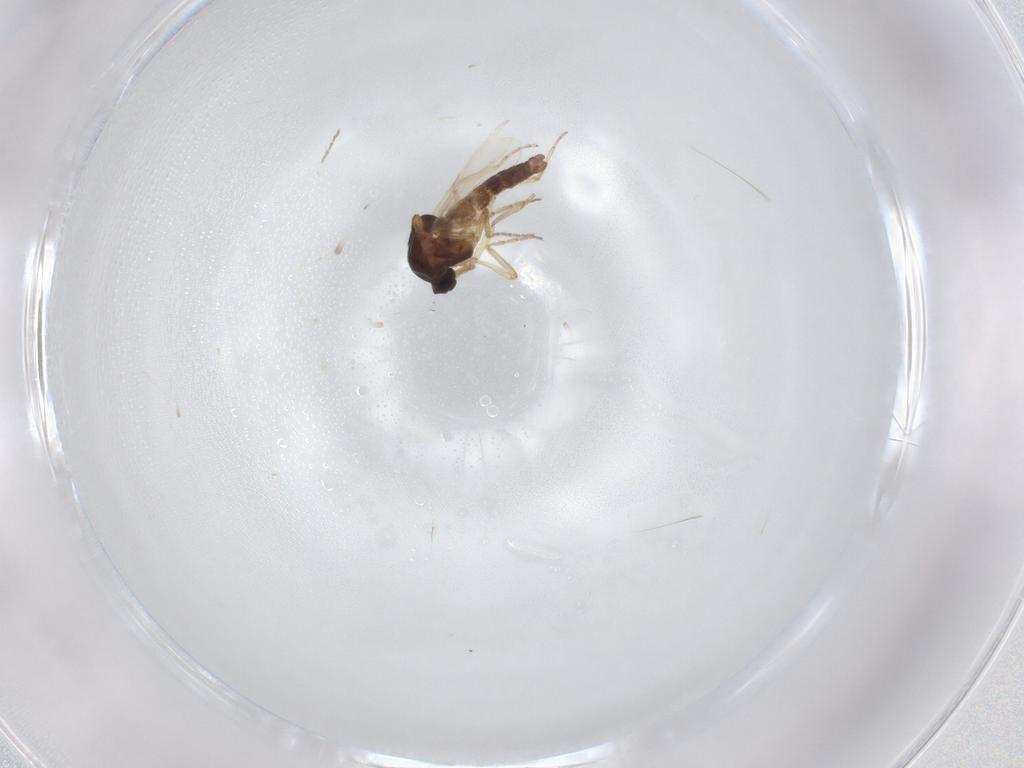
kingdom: Animalia
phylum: Arthropoda
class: Insecta
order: Diptera
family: Ceratopogonidae
